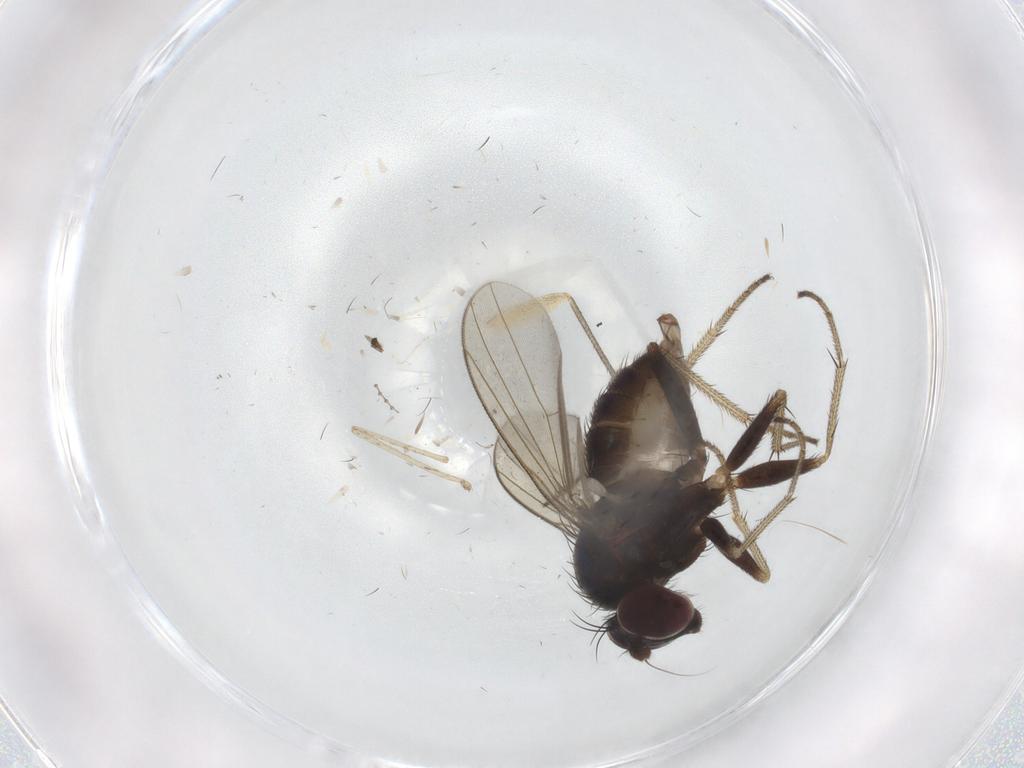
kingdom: Animalia
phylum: Arthropoda
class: Insecta
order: Diptera
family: Dolichopodidae
